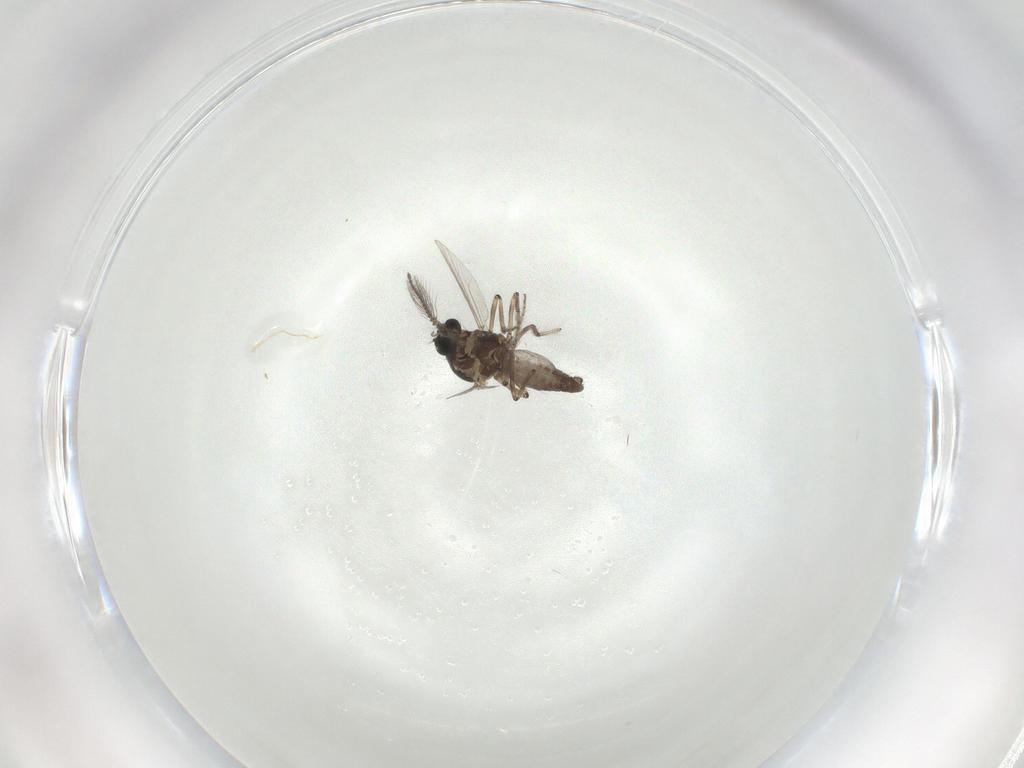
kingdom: Animalia
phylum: Arthropoda
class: Insecta
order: Diptera
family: Ceratopogonidae
